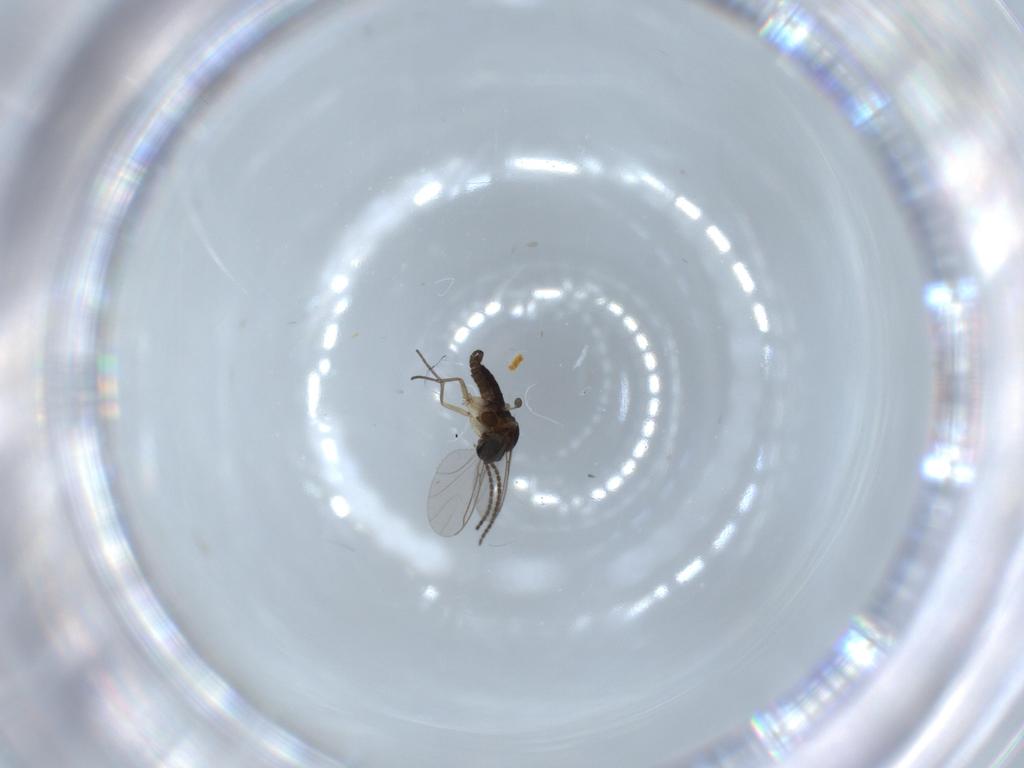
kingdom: Animalia
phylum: Arthropoda
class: Insecta
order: Diptera
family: Sciaridae
